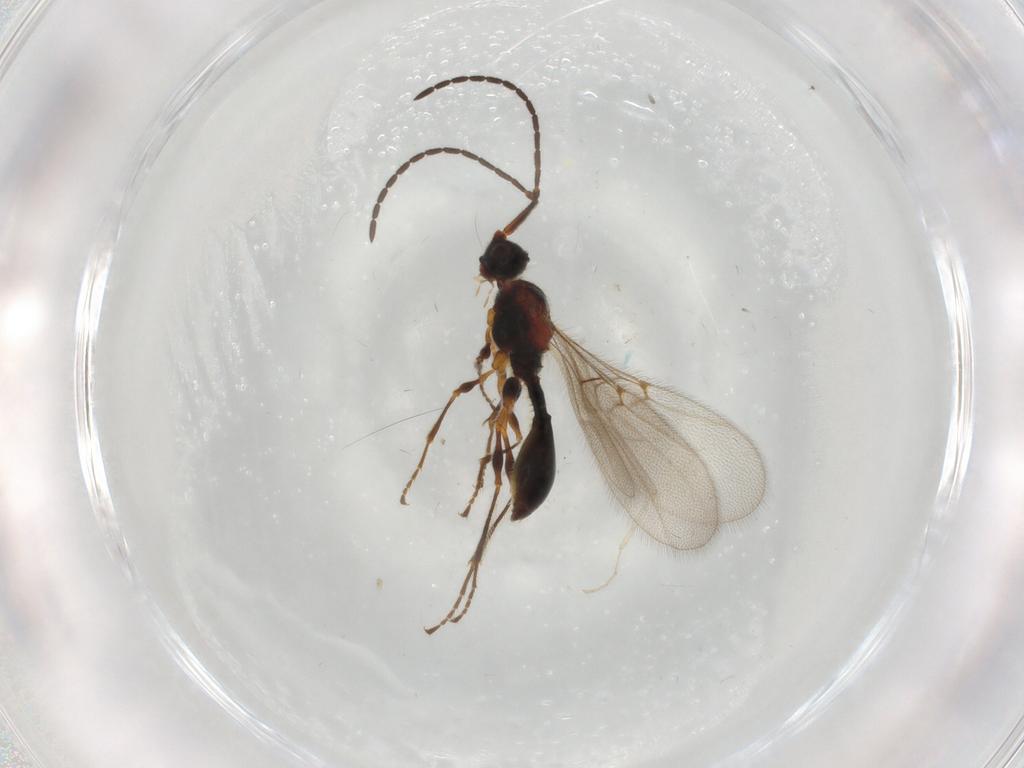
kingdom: Animalia
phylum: Arthropoda
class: Insecta
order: Hymenoptera
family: Diapriidae
